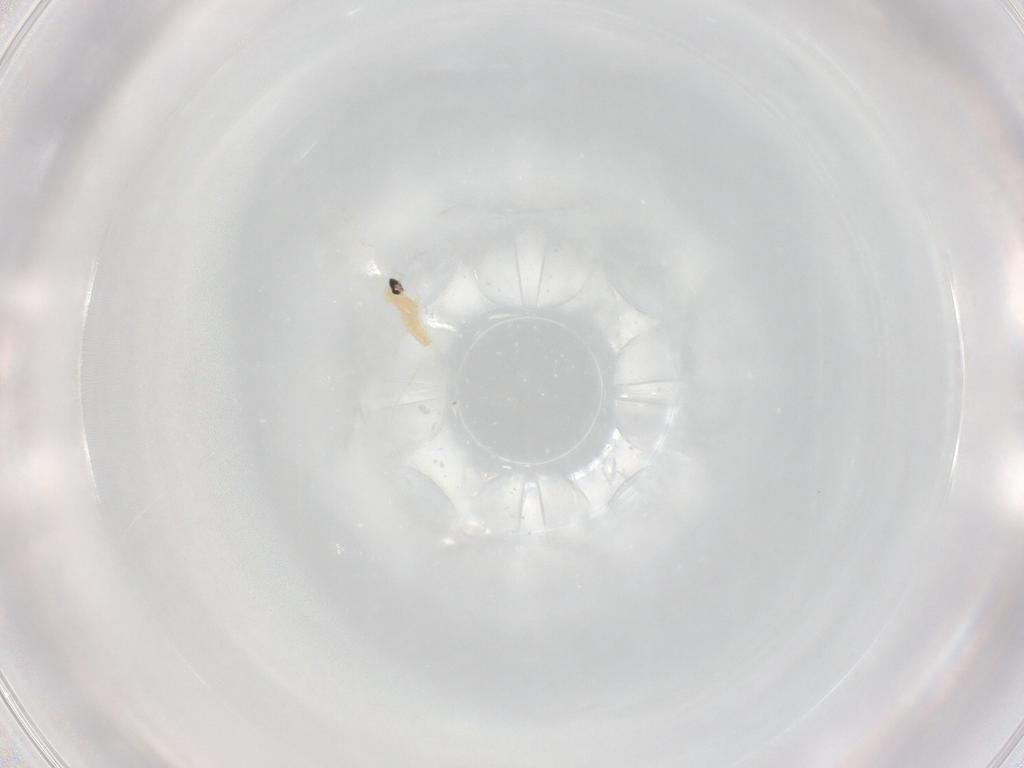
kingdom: Animalia
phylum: Arthropoda
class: Insecta
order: Diptera
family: Cecidomyiidae
